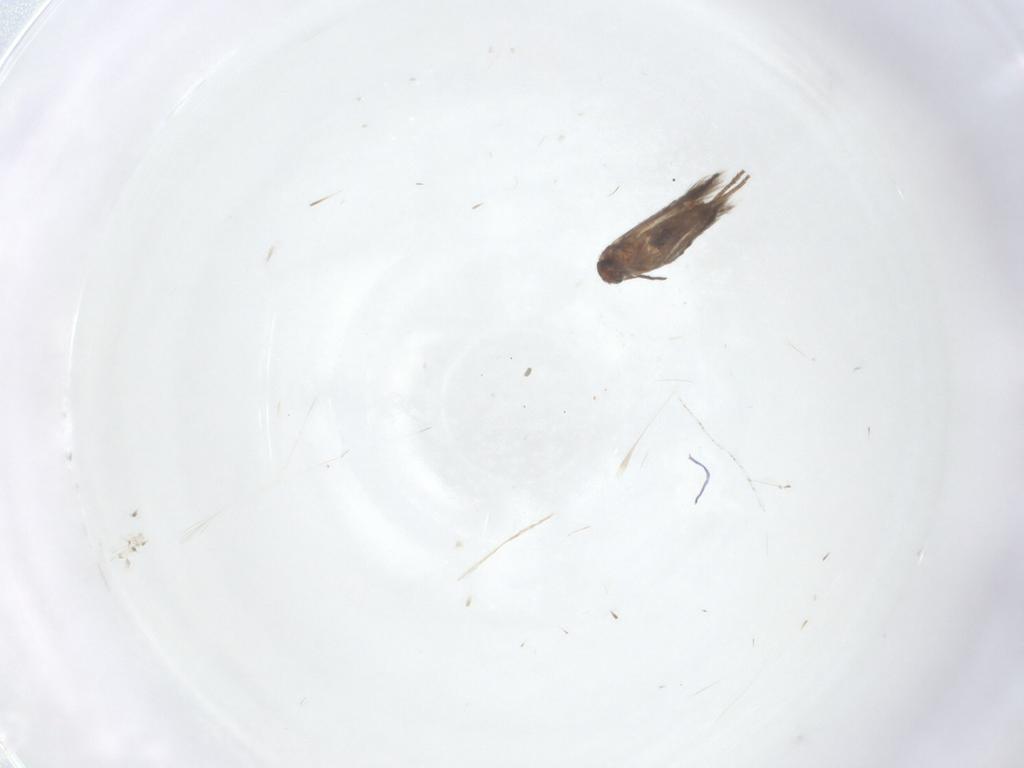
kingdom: Animalia
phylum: Arthropoda
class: Insecta
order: Lepidoptera
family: Heliozelidae
